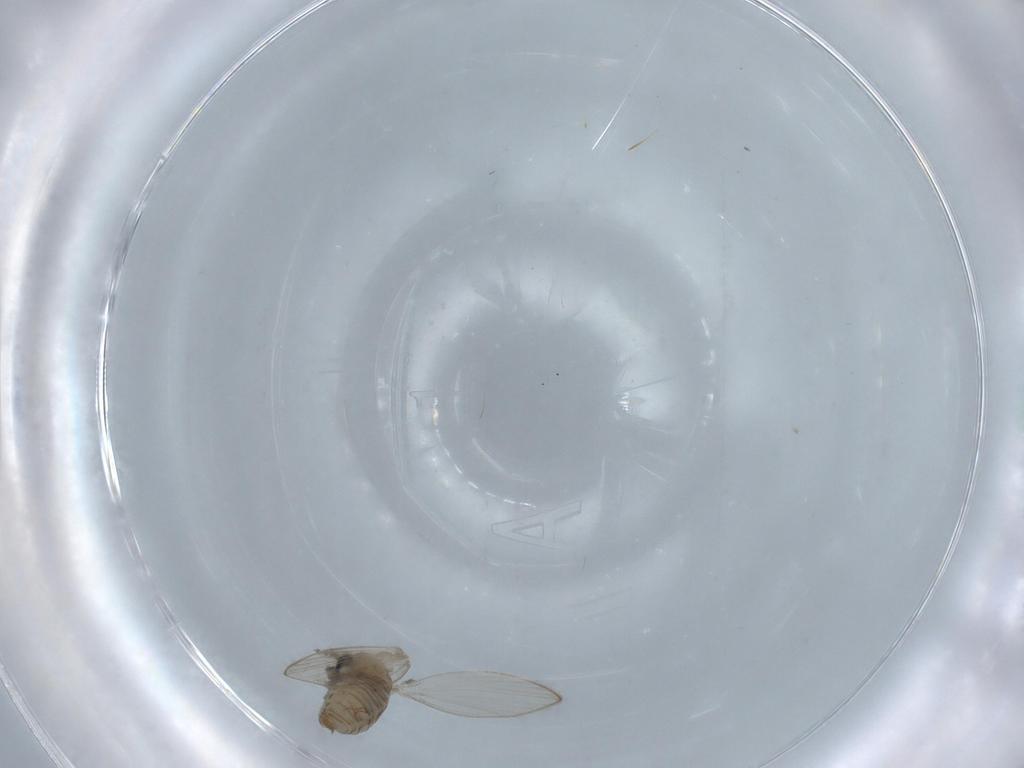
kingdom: Animalia
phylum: Arthropoda
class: Insecta
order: Diptera
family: Psychodidae
